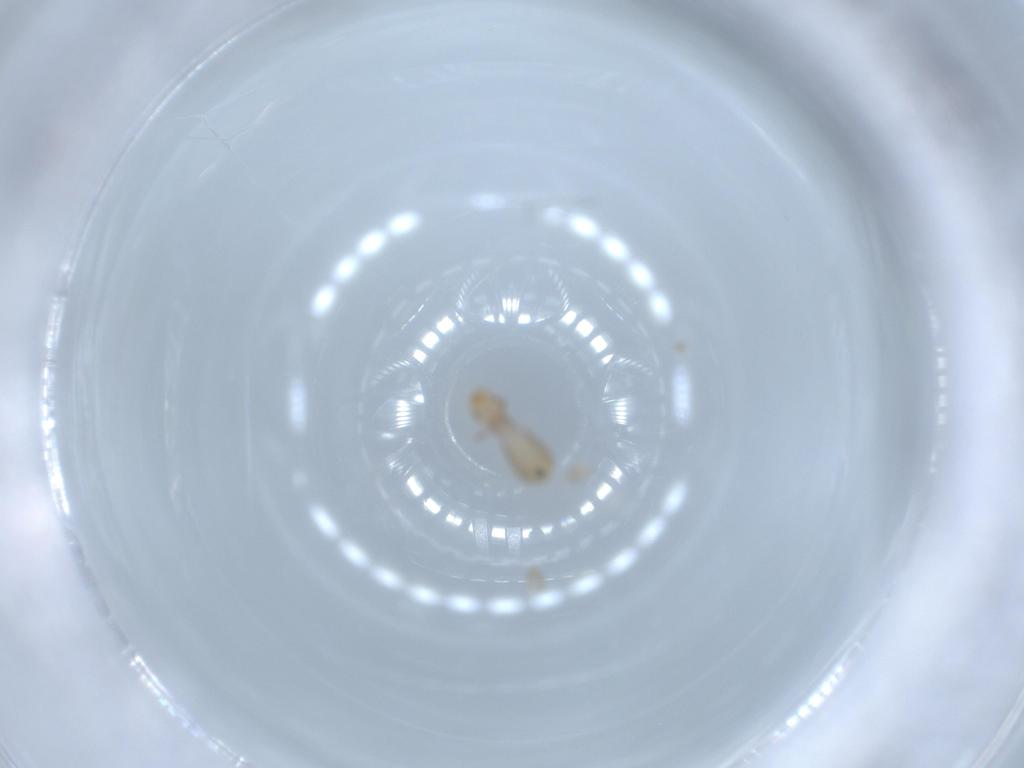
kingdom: Animalia
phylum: Arthropoda
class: Insecta
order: Psocodea
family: Liposcelididae
